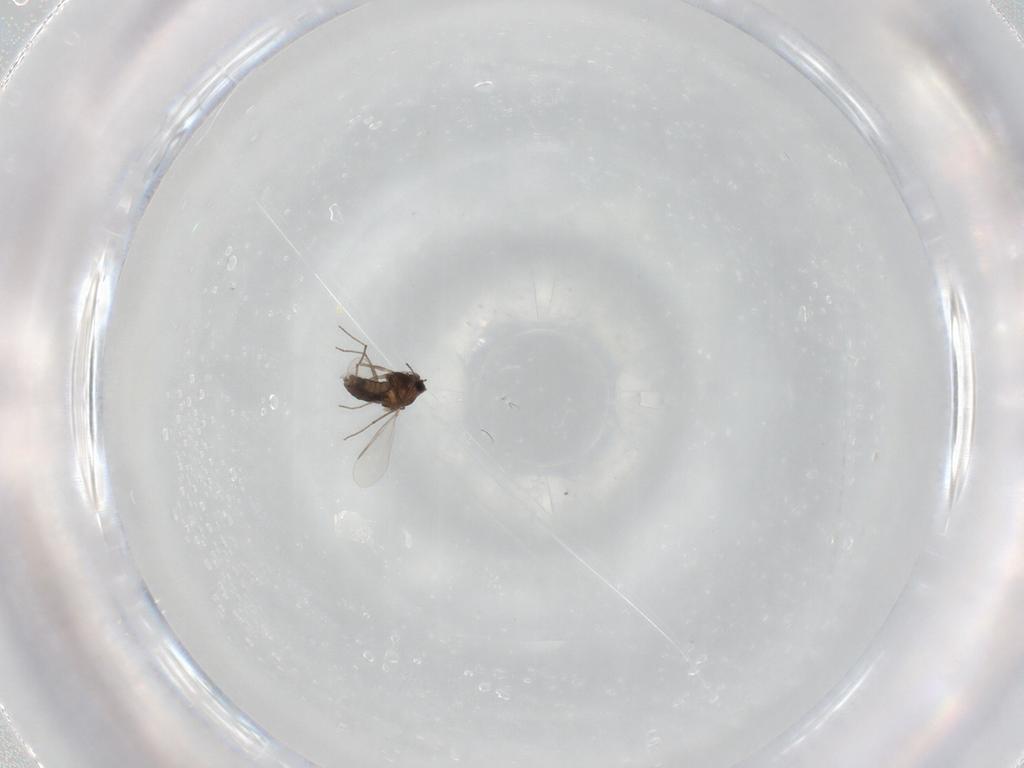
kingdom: Animalia
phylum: Arthropoda
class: Insecta
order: Diptera
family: Chironomidae
